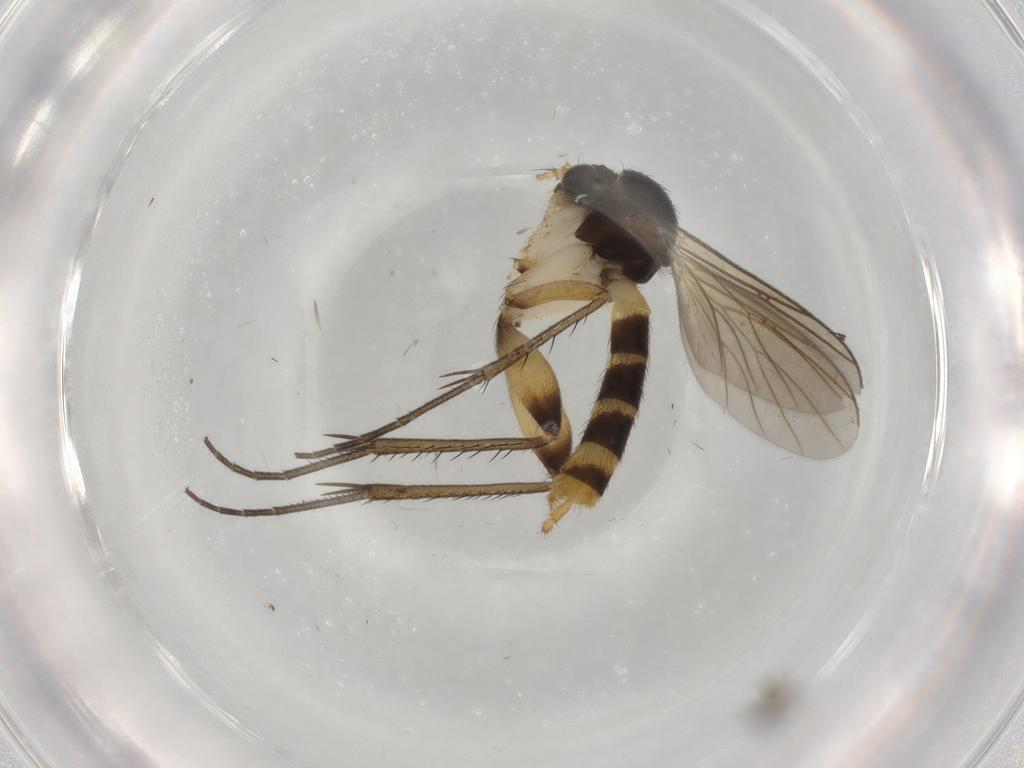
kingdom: Animalia
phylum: Arthropoda
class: Insecta
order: Diptera
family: Mycetophilidae
